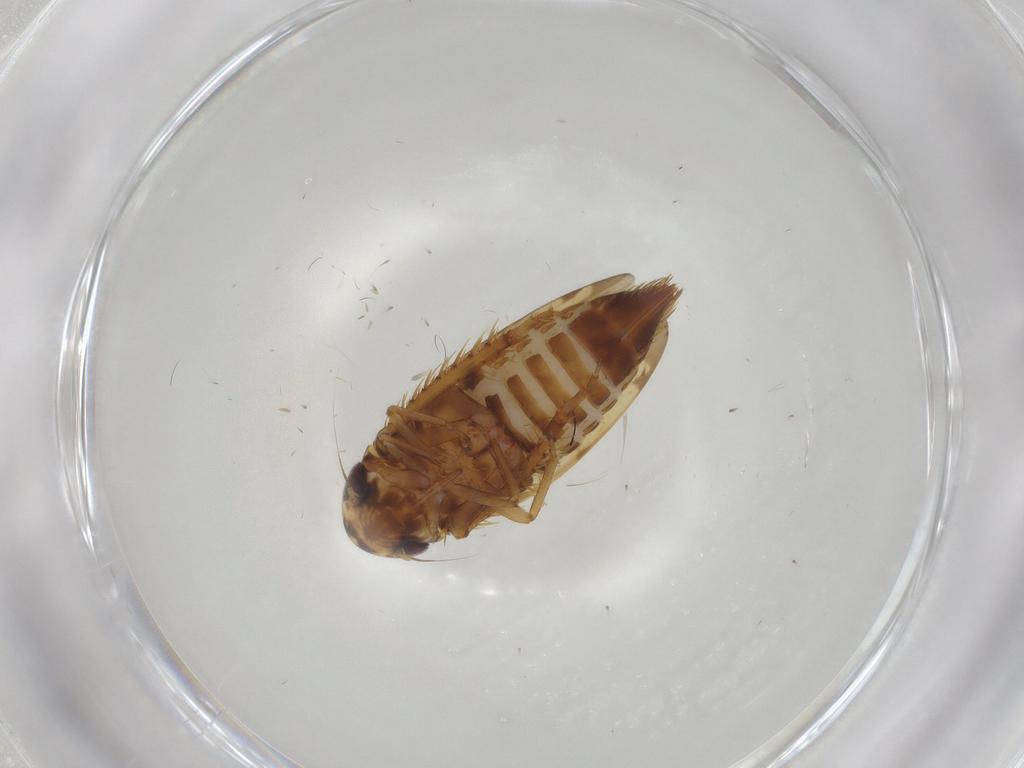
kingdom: Animalia
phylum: Arthropoda
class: Insecta
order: Hemiptera
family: Cicadellidae
